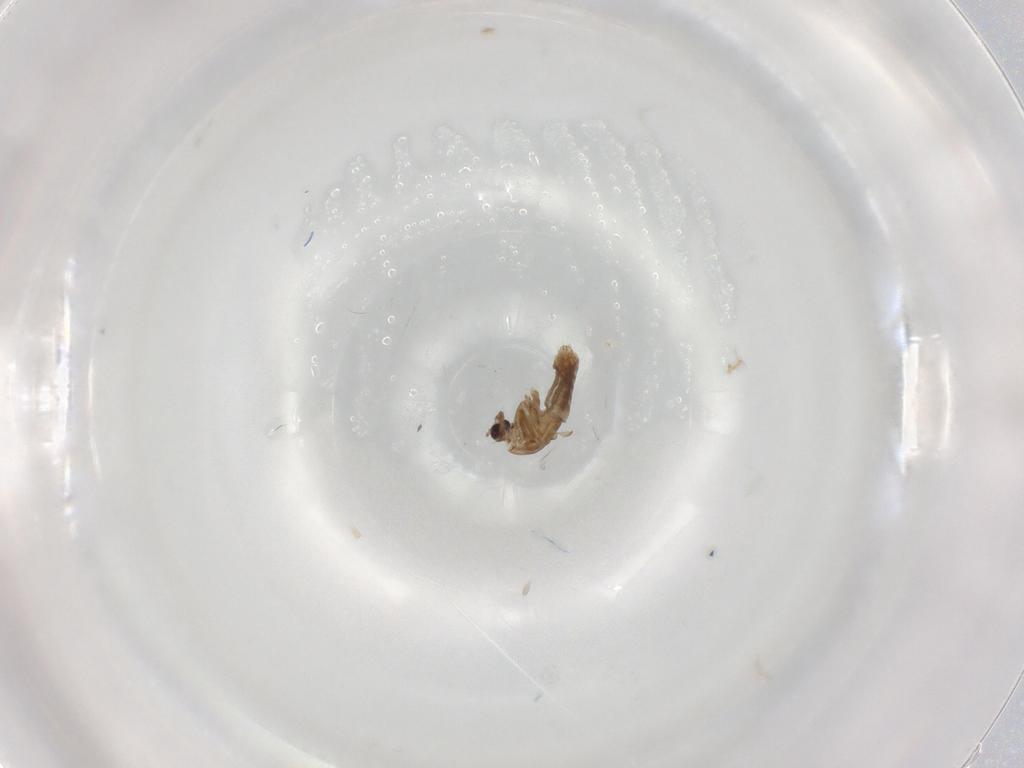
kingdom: Animalia
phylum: Arthropoda
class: Insecta
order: Diptera
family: Chironomidae
